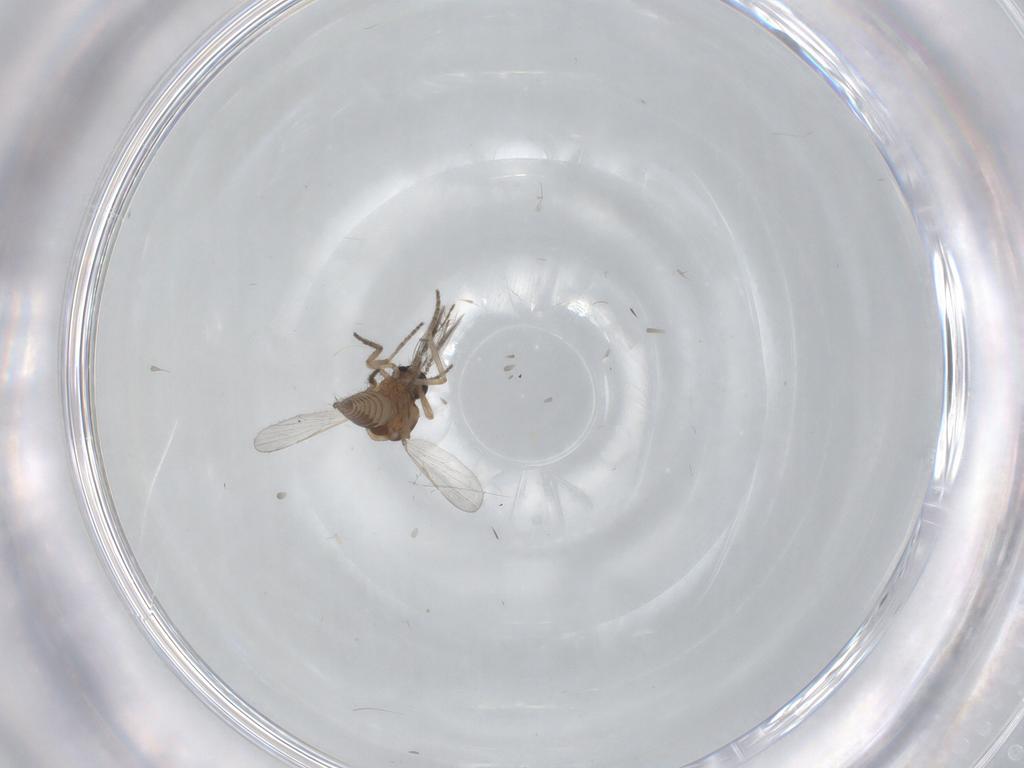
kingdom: Animalia
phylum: Arthropoda
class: Insecta
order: Diptera
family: Ceratopogonidae
